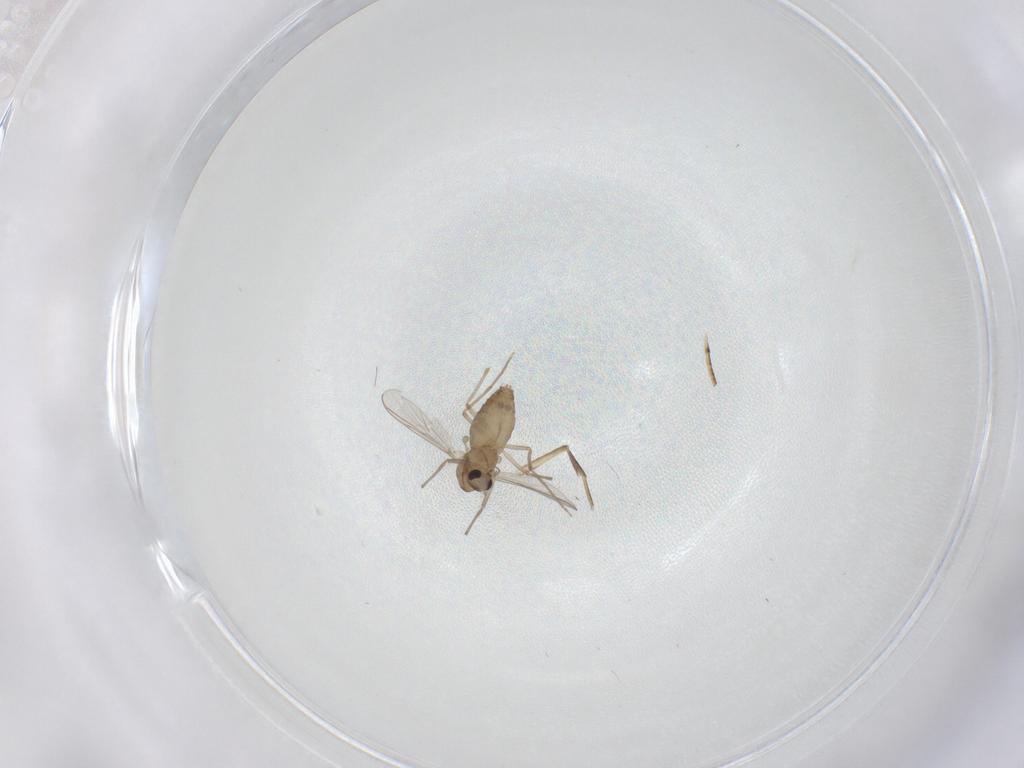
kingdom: Animalia
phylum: Arthropoda
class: Insecta
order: Diptera
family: Chironomidae
